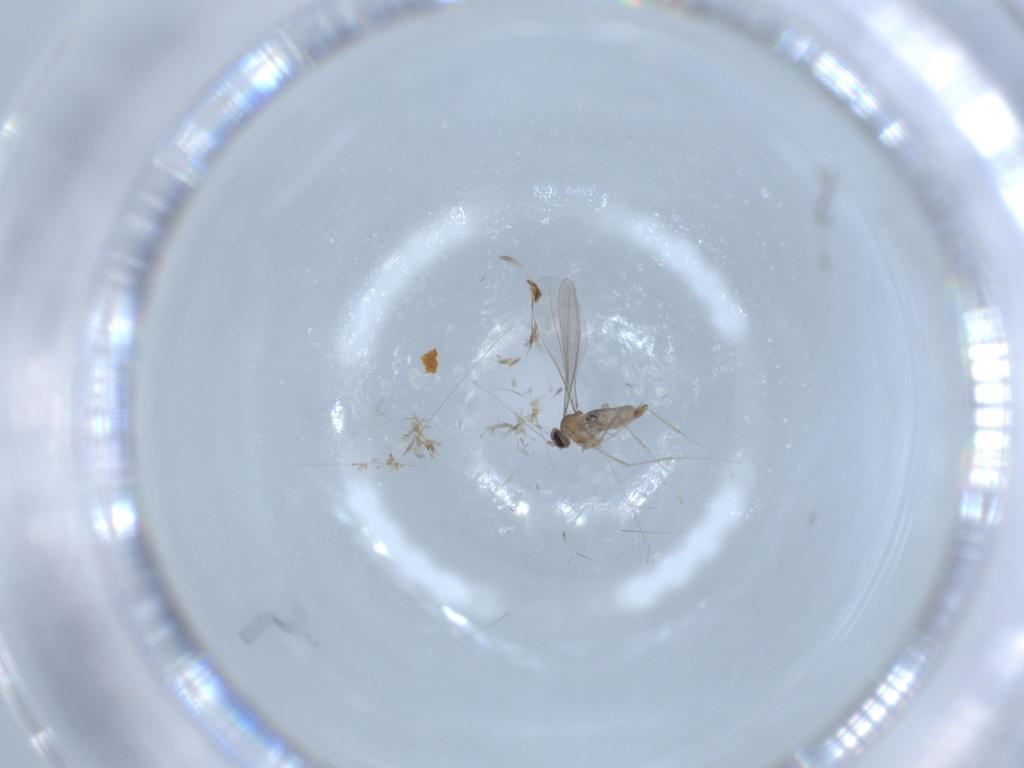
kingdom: Animalia
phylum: Arthropoda
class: Insecta
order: Diptera
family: Cecidomyiidae
